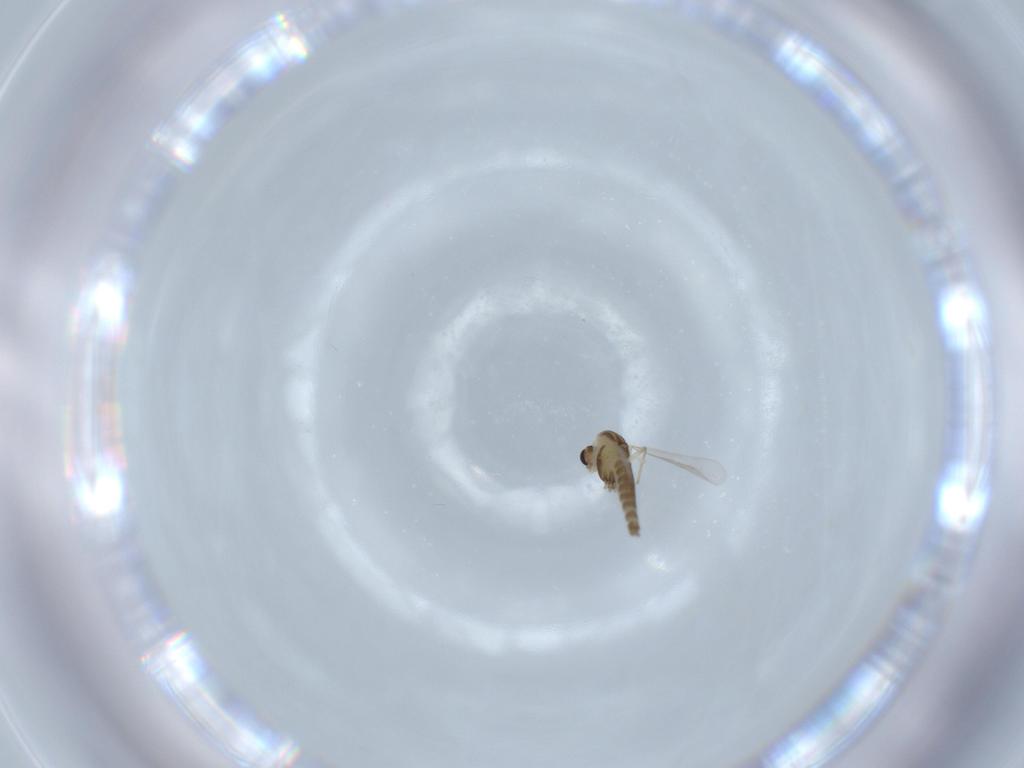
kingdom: Animalia
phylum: Arthropoda
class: Insecta
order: Diptera
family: Chironomidae
